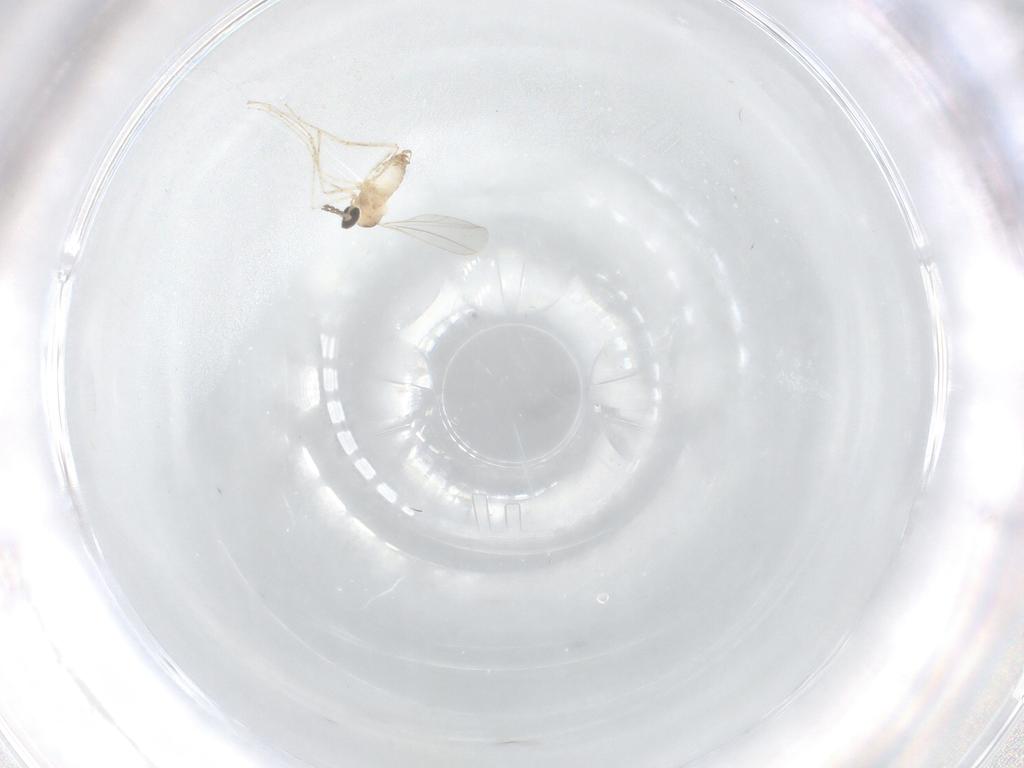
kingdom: Animalia
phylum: Arthropoda
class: Insecta
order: Diptera
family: Cecidomyiidae
